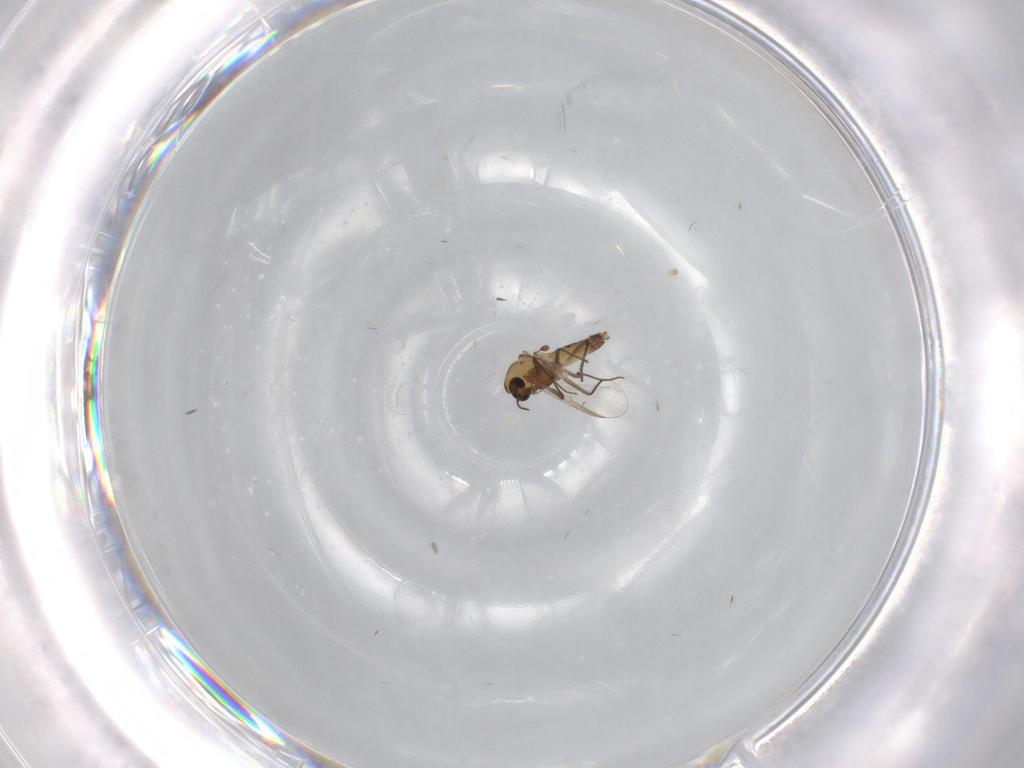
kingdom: Animalia
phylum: Arthropoda
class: Insecta
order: Diptera
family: Chironomidae
